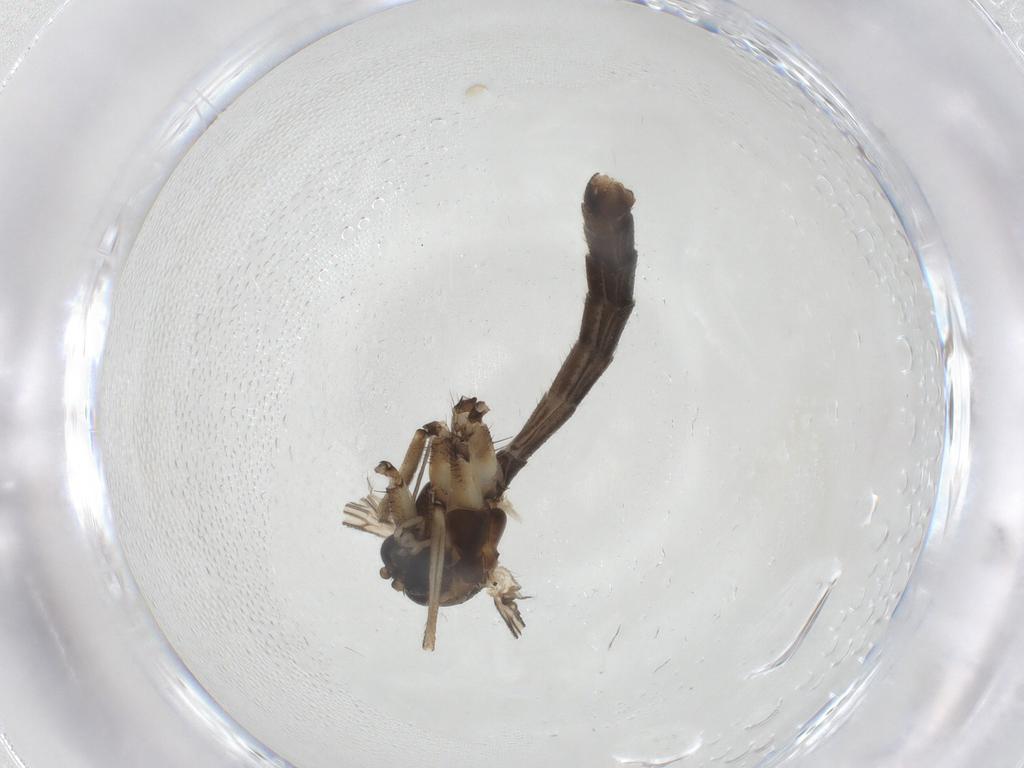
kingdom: Animalia
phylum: Arthropoda
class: Insecta
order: Diptera
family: Mycetophilidae
